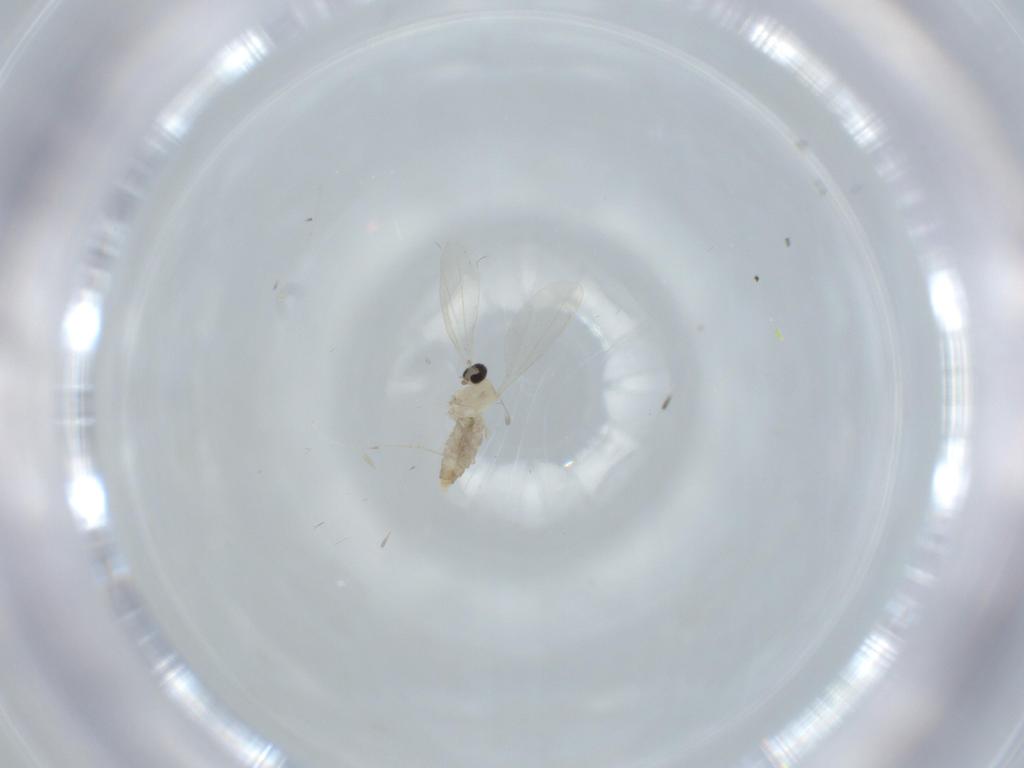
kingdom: Animalia
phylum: Arthropoda
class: Insecta
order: Diptera
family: Cecidomyiidae
